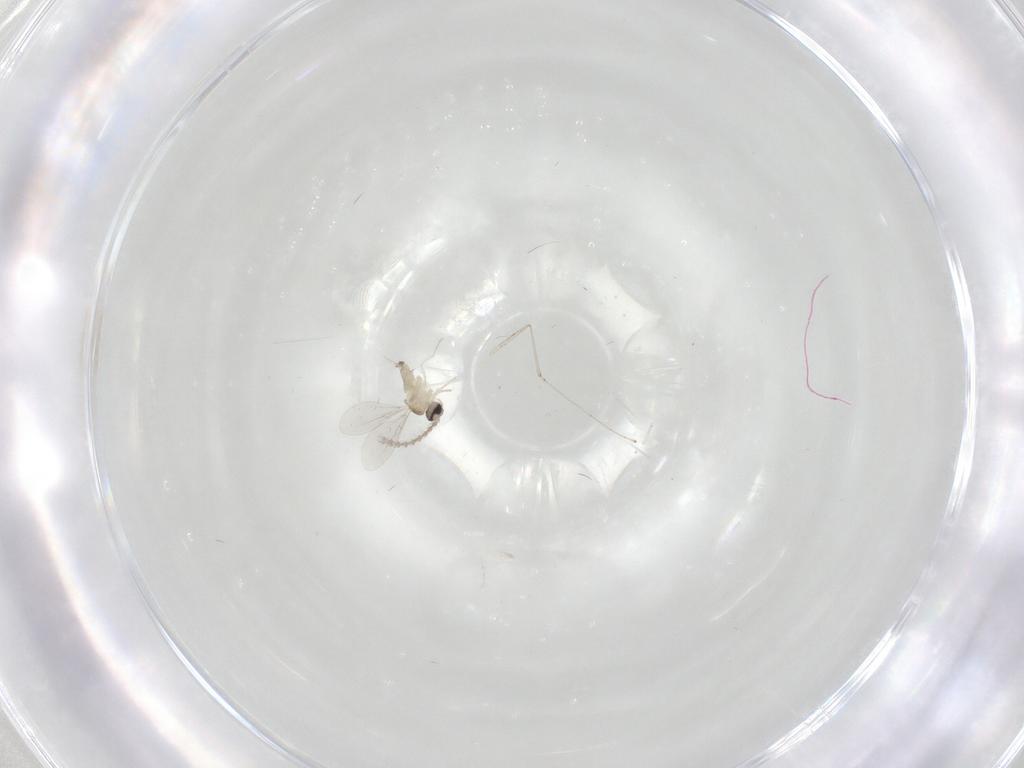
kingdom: Animalia
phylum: Arthropoda
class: Insecta
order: Diptera
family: Cecidomyiidae
